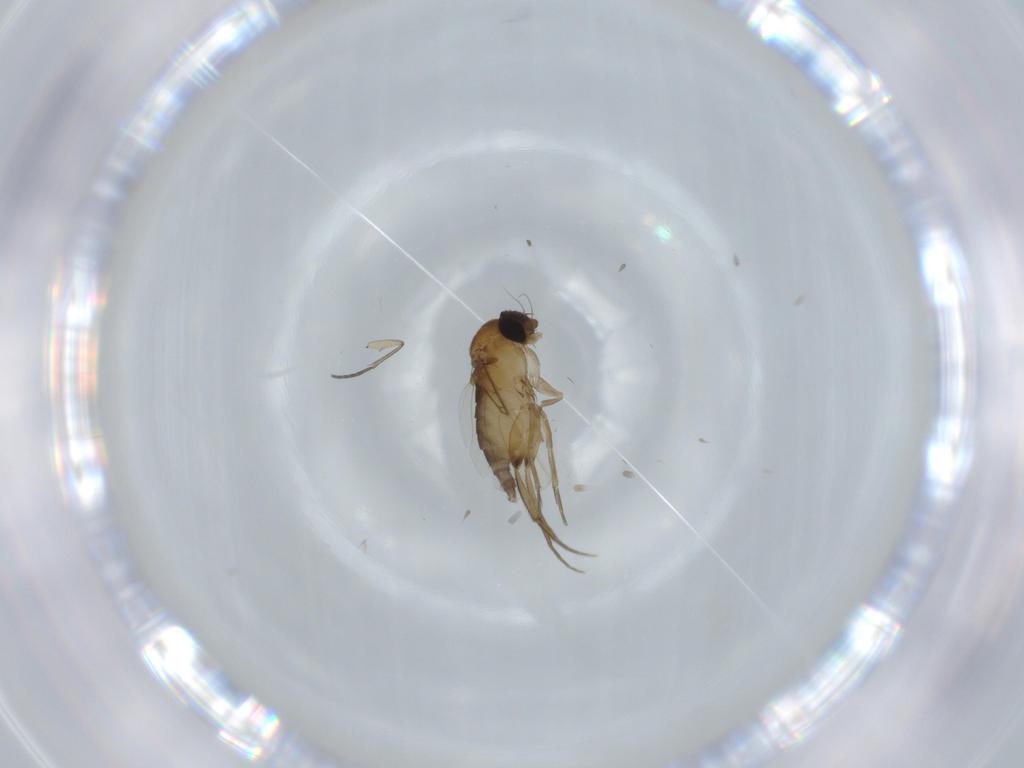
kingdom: Animalia
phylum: Arthropoda
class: Insecta
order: Diptera
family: Phoridae
